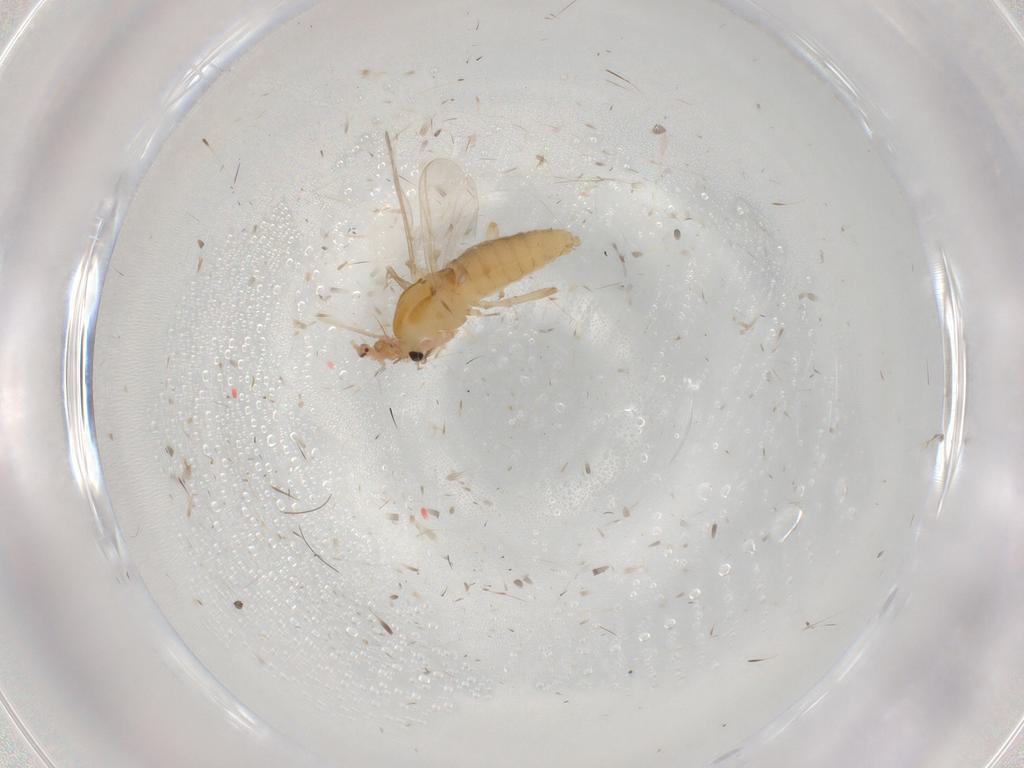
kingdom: Animalia
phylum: Arthropoda
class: Insecta
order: Diptera
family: Chironomidae
